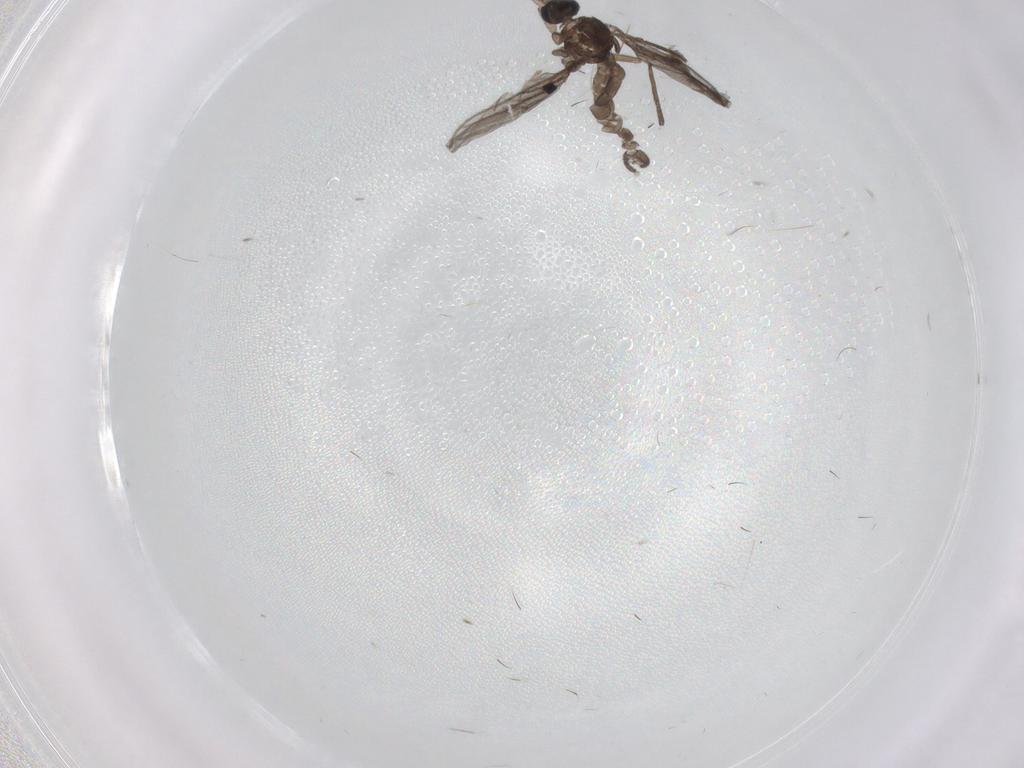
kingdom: Animalia
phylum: Arthropoda
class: Insecta
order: Diptera
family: Sciaridae
